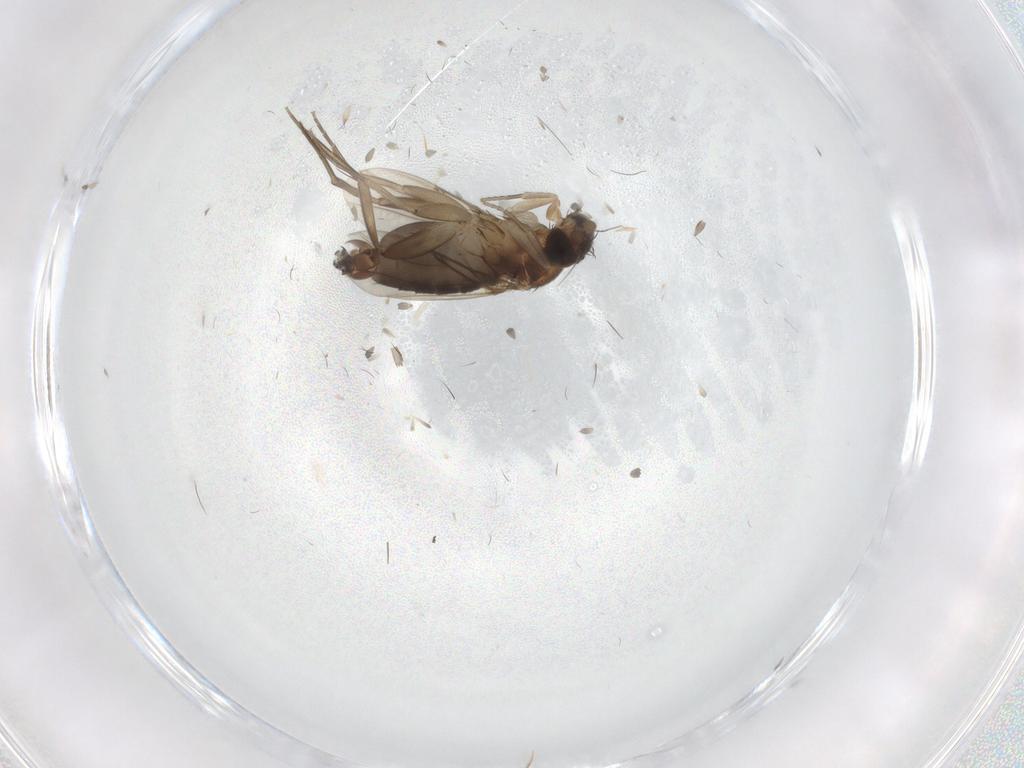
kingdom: Animalia
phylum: Arthropoda
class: Insecta
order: Diptera
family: Phoridae
